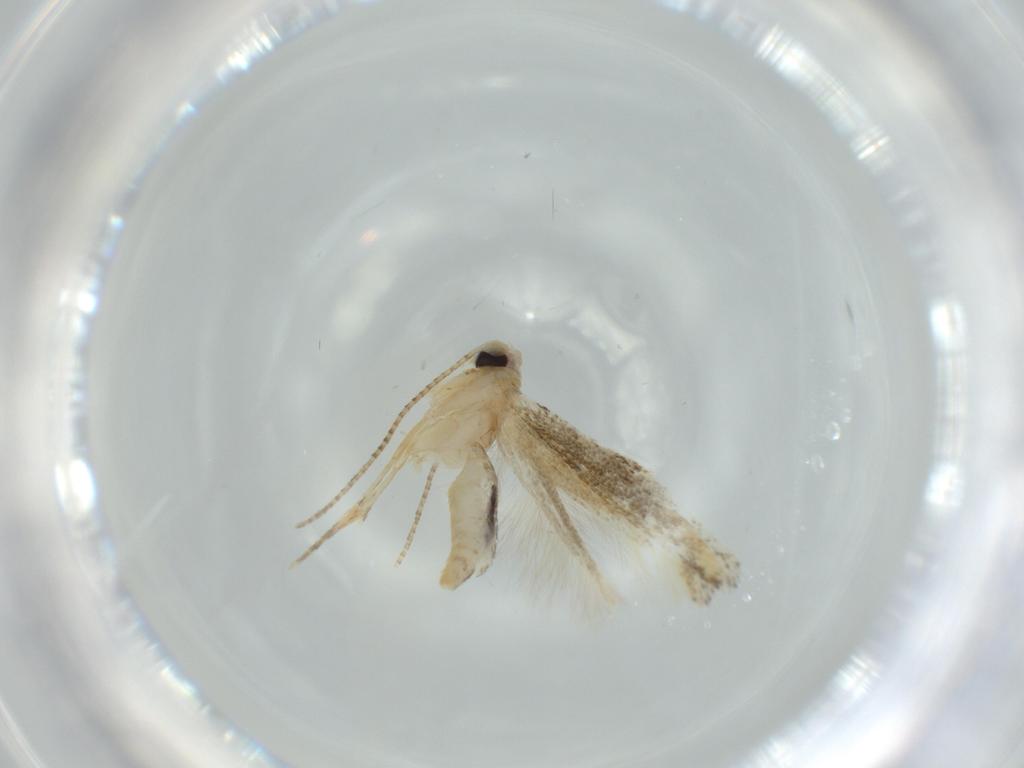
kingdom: Animalia
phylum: Arthropoda
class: Insecta
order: Lepidoptera
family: Bucculatricidae
